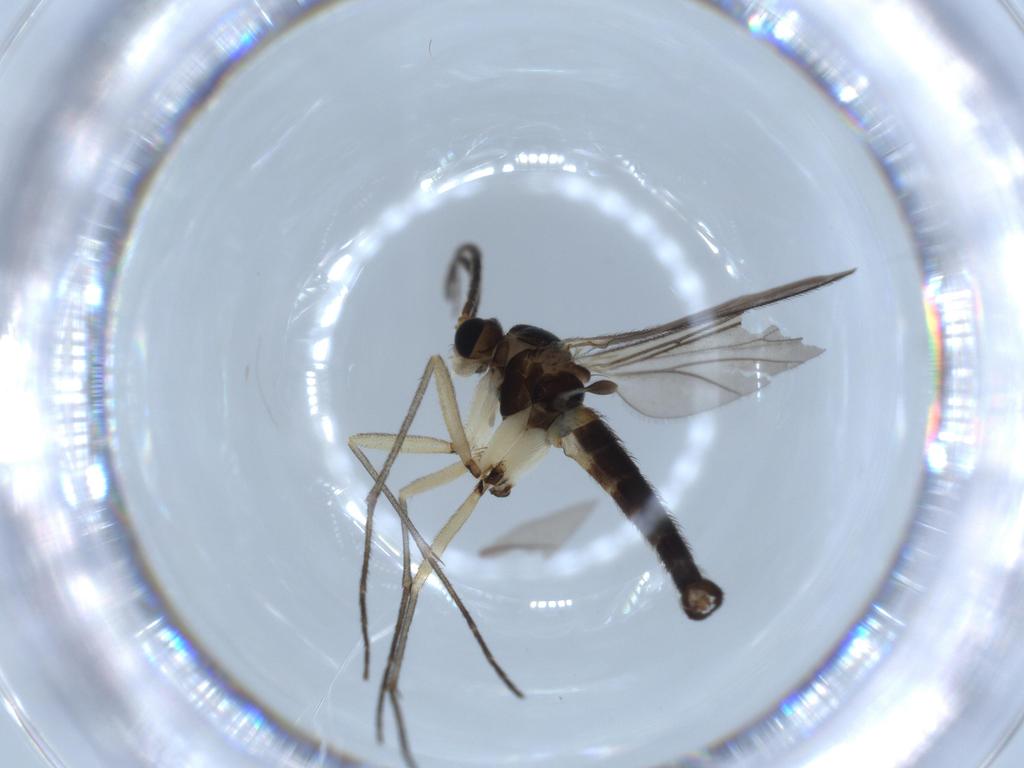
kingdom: Animalia
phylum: Arthropoda
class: Insecta
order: Diptera
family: Sciaridae
